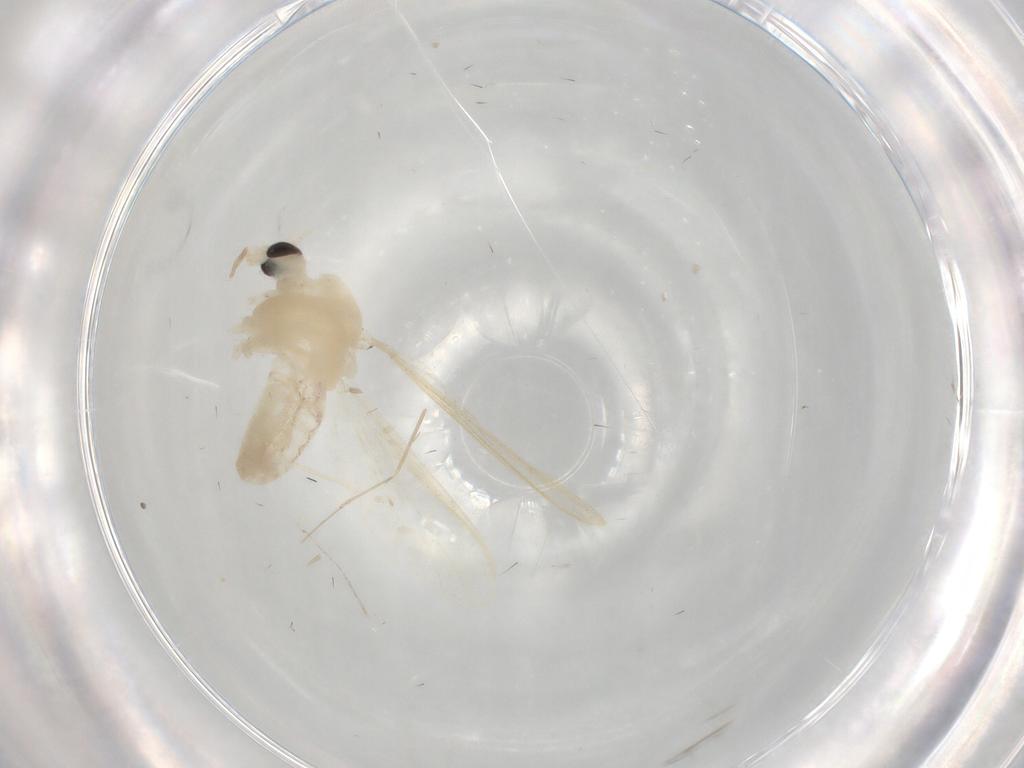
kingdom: Animalia
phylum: Arthropoda
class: Insecta
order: Diptera
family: Chironomidae
